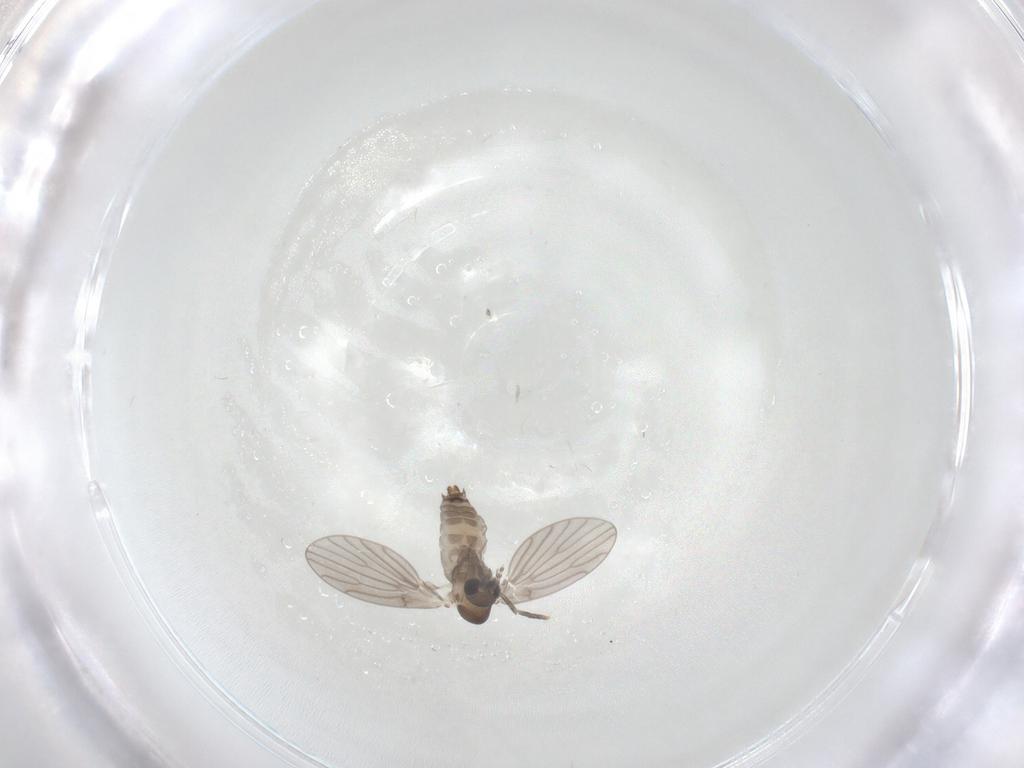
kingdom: Animalia
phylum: Arthropoda
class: Insecta
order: Diptera
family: Psychodidae
